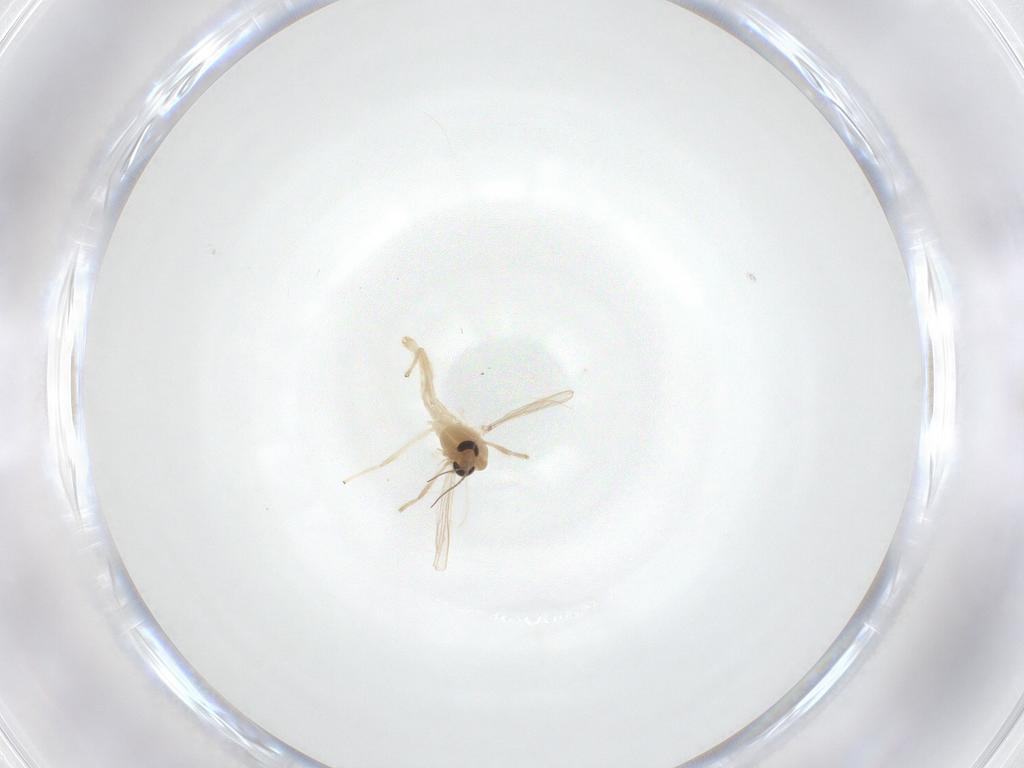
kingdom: Animalia
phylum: Arthropoda
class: Insecta
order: Diptera
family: Chironomidae
